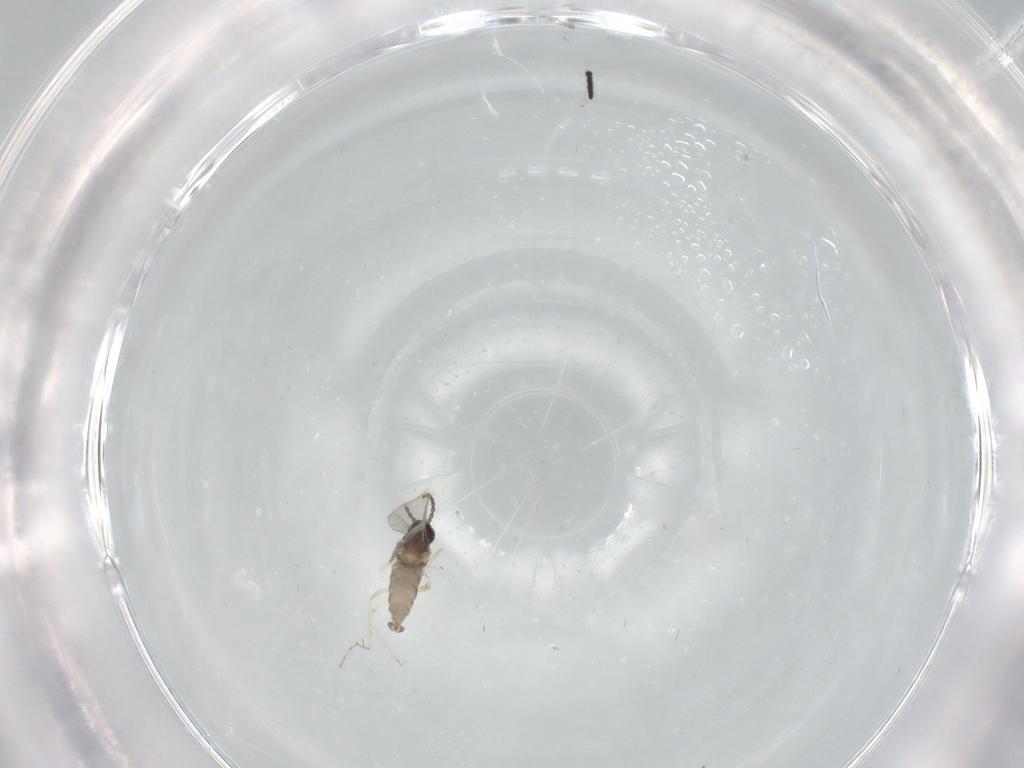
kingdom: Animalia
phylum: Arthropoda
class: Insecta
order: Diptera
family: Cecidomyiidae
